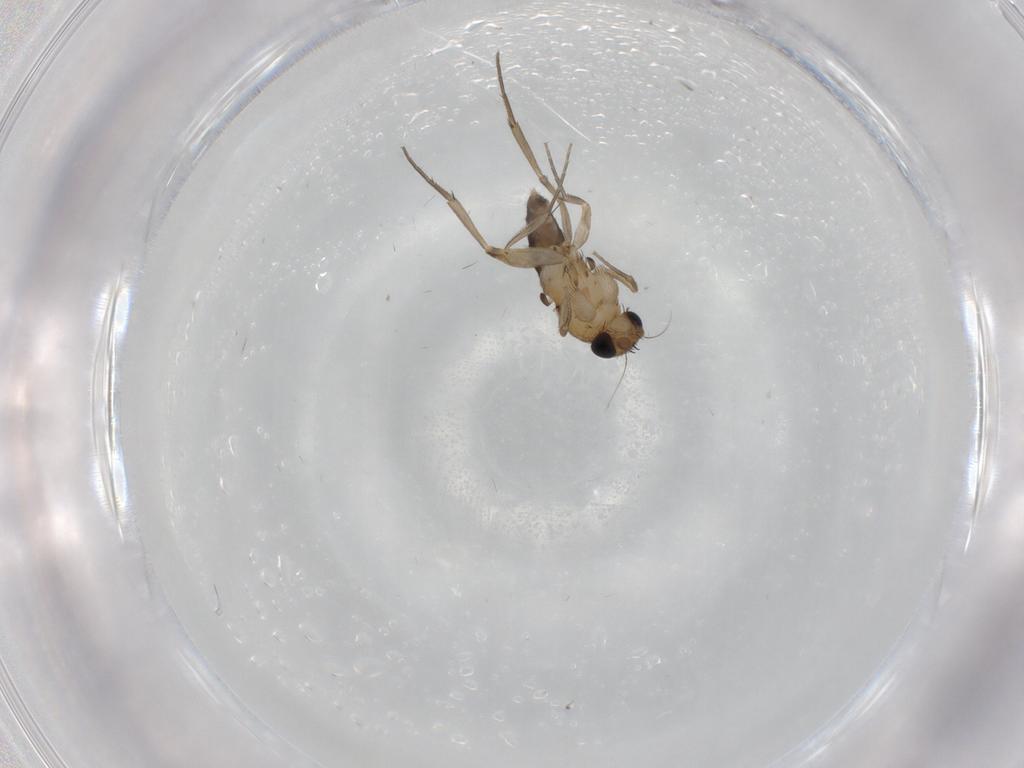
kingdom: Animalia
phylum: Arthropoda
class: Insecta
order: Diptera
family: Phoridae
